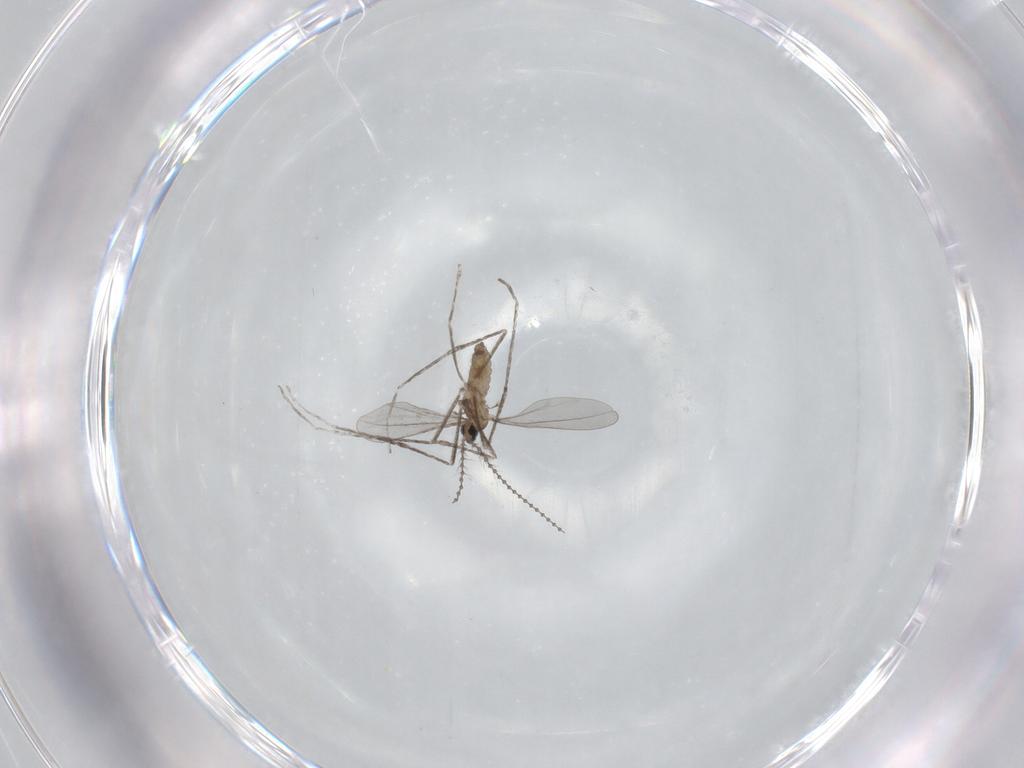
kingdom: Animalia
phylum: Arthropoda
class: Insecta
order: Diptera
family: Cecidomyiidae
